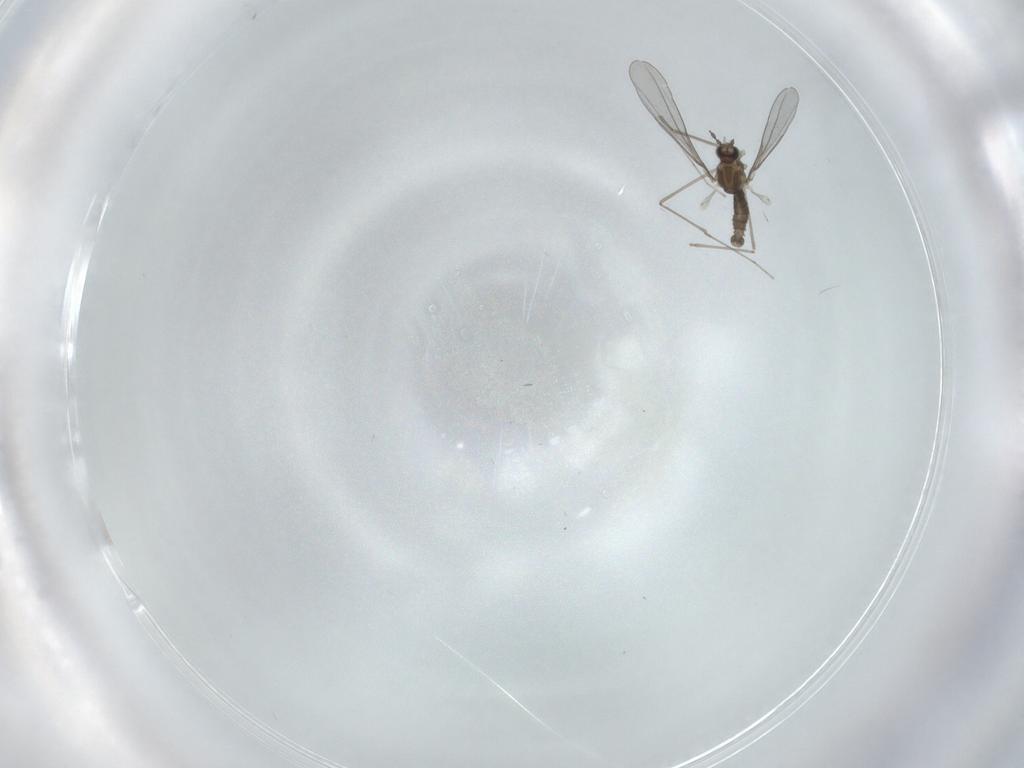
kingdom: Animalia
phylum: Arthropoda
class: Insecta
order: Diptera
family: Cecidomyiidae
